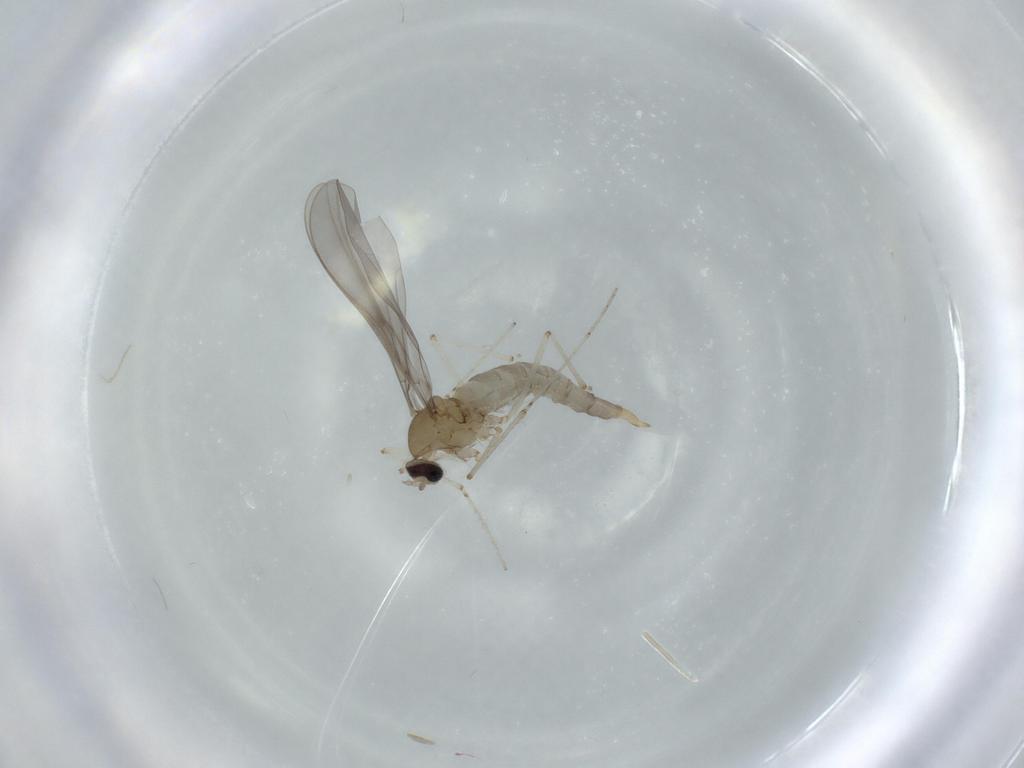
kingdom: Animalia
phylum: Arthropoda
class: Insecta
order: Diptera
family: Cecidomyiidae
